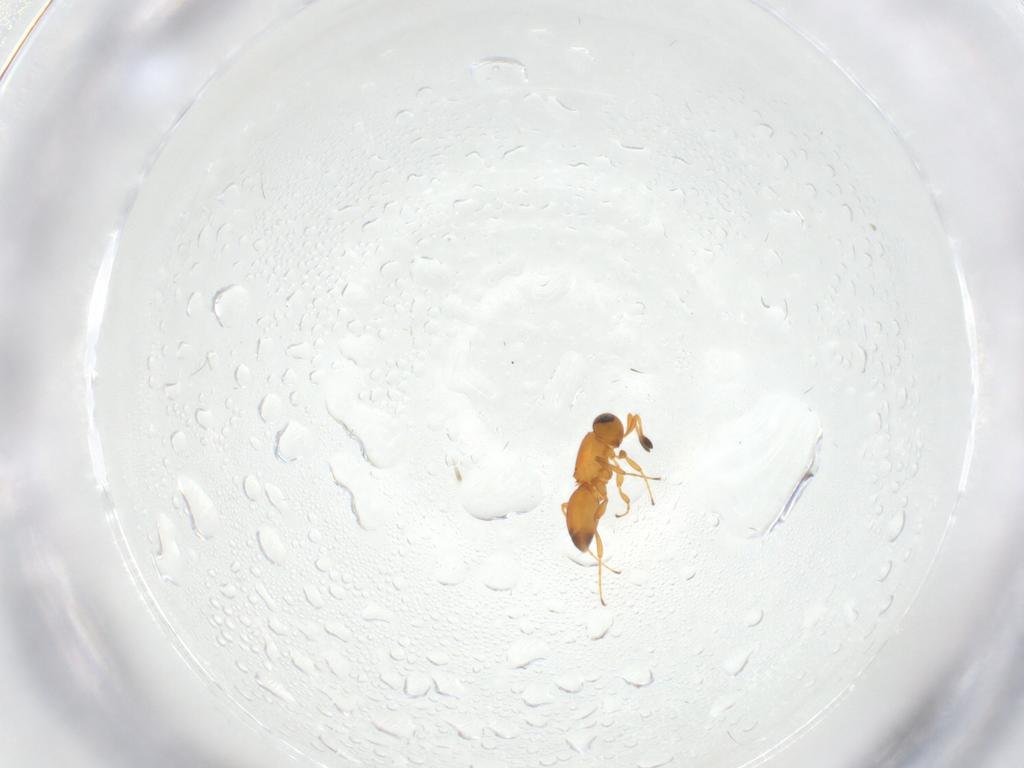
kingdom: Animalia
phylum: Arthropoda
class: Insecta
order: Hymenoptera
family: Platygastridae
